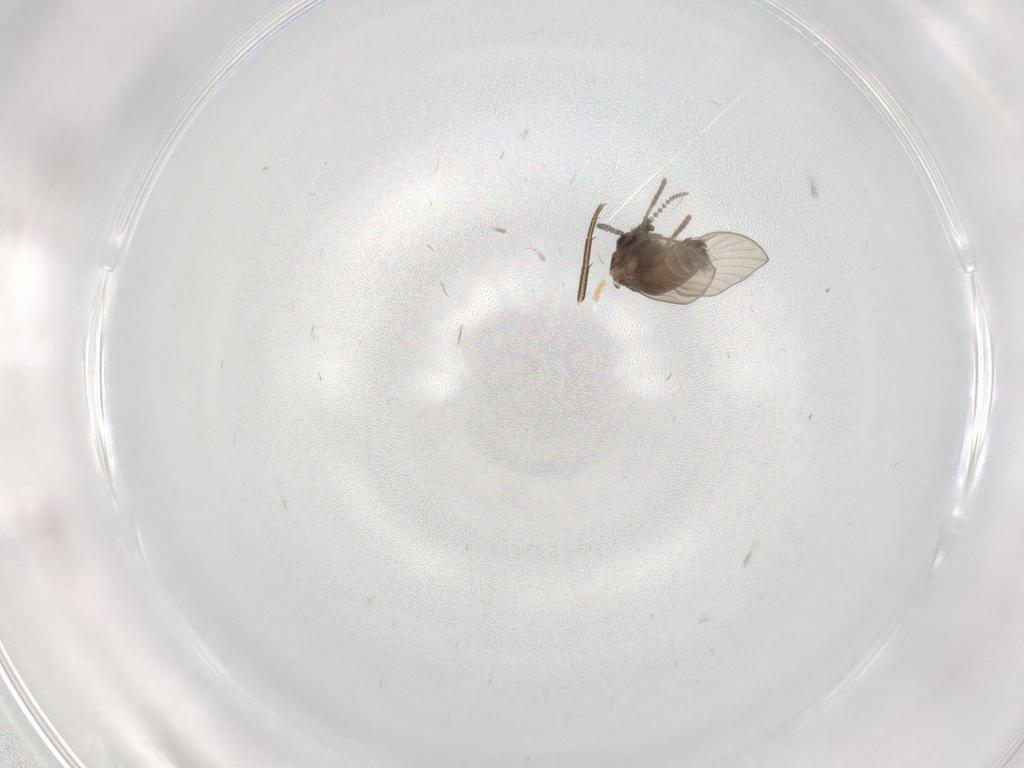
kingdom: Animalia
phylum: Arthropoda
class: Insecta
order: Diptera
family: Psychodidae
